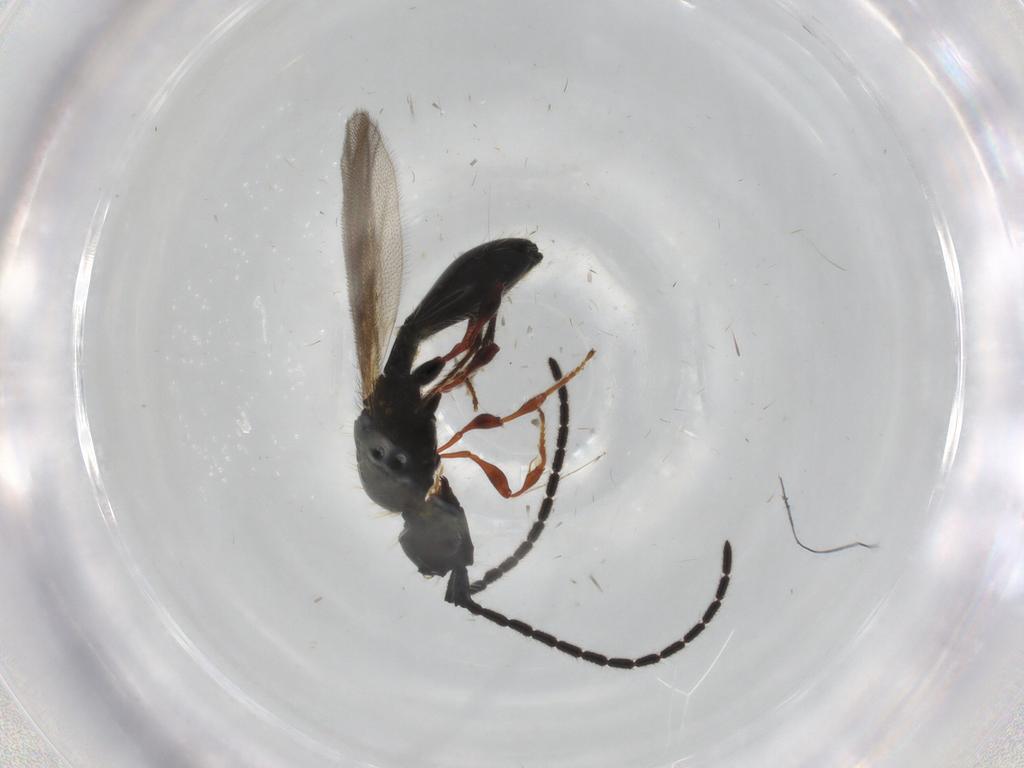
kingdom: Animalia
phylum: Arthropoda
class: Insecta
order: Hymenoptera
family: Diapriidae
